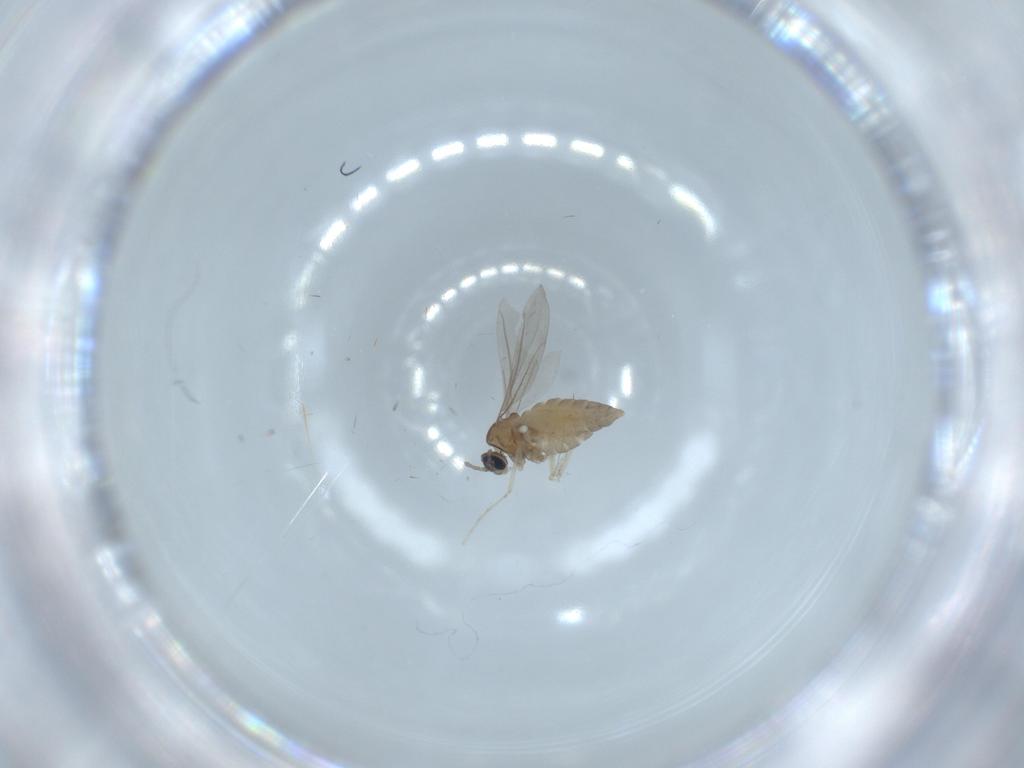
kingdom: Animalia
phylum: Arthropoda
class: Insecta
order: Diptera
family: Cecidomyiidae
